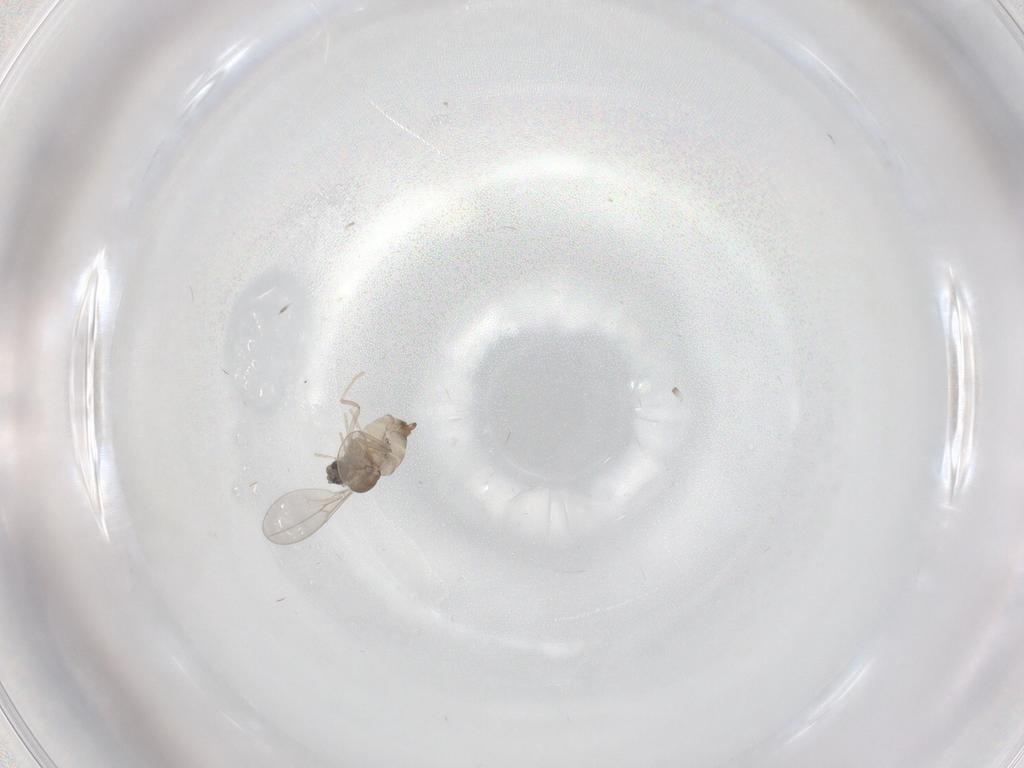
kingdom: Animalia
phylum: Arthropoda
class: Insecta
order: Diptera
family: Cecidomyiidae
